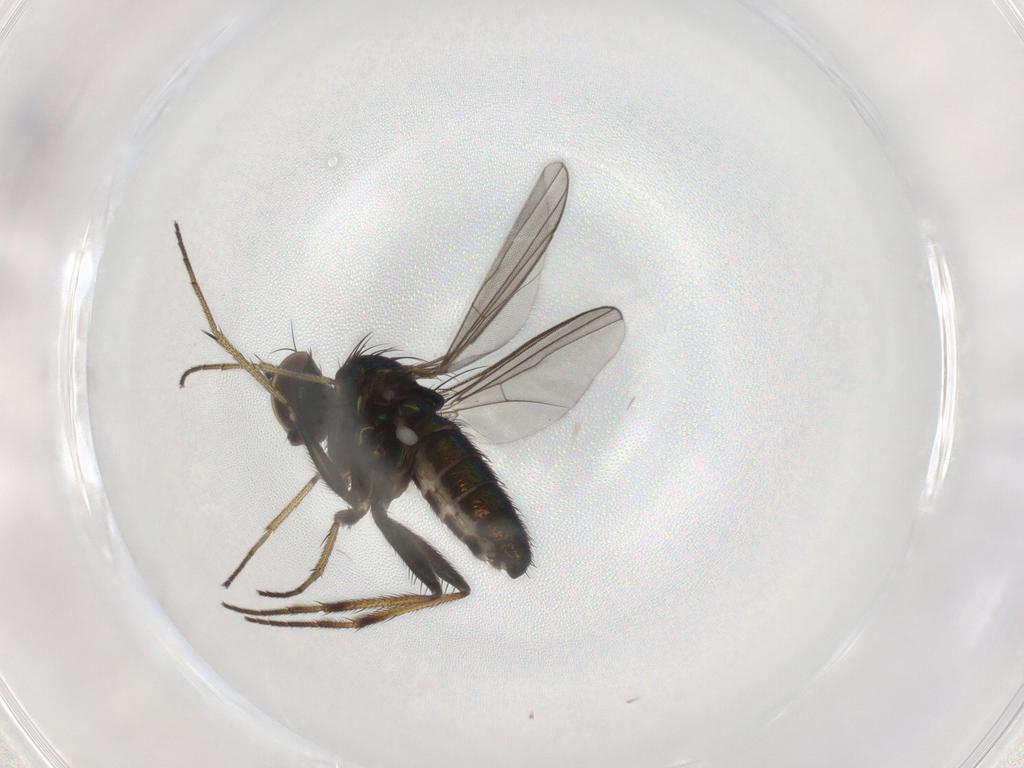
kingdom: Animalia
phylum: Arthropoda
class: Insecta
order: Diptera
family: Dolichopodidae
